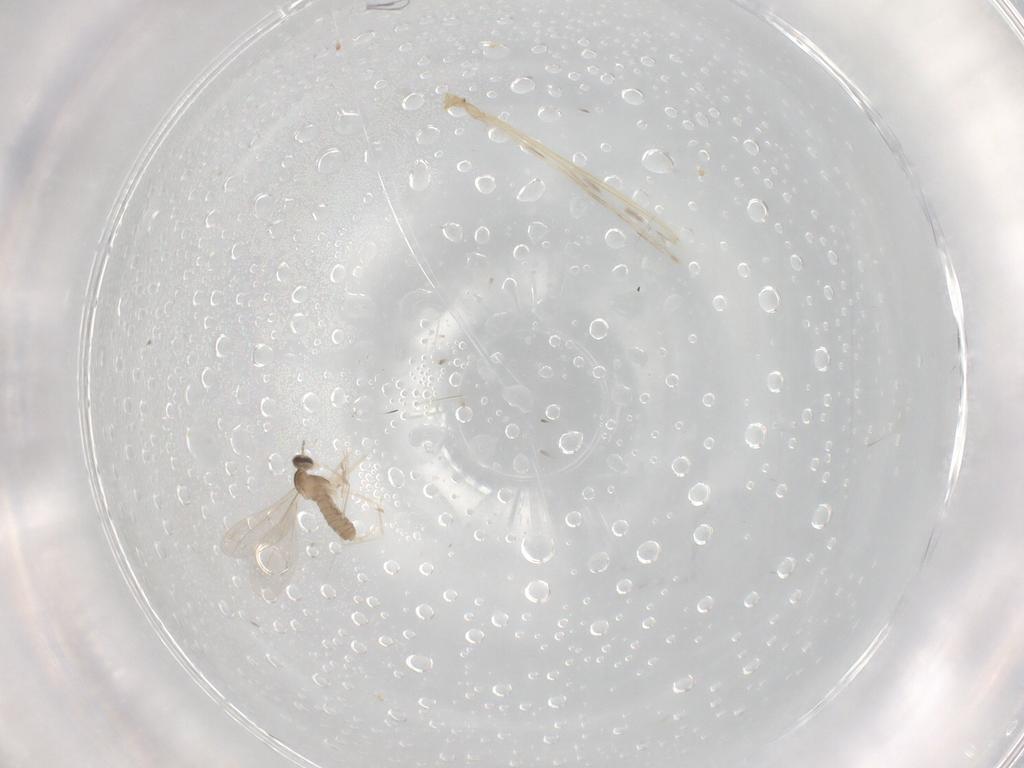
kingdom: Animalia
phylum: Arthropoda
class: Insecta
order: Diptera
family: Cecidomyiidae
